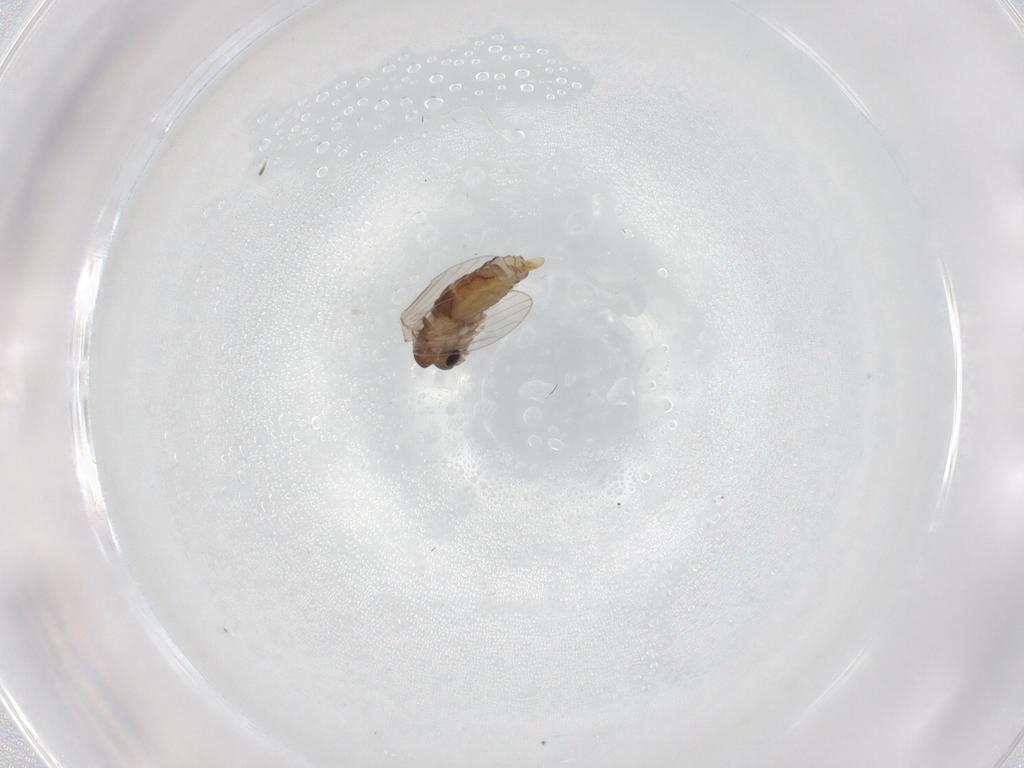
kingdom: Animalia
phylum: Arthropoda
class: Insecta
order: Diptera
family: Psychodidae
